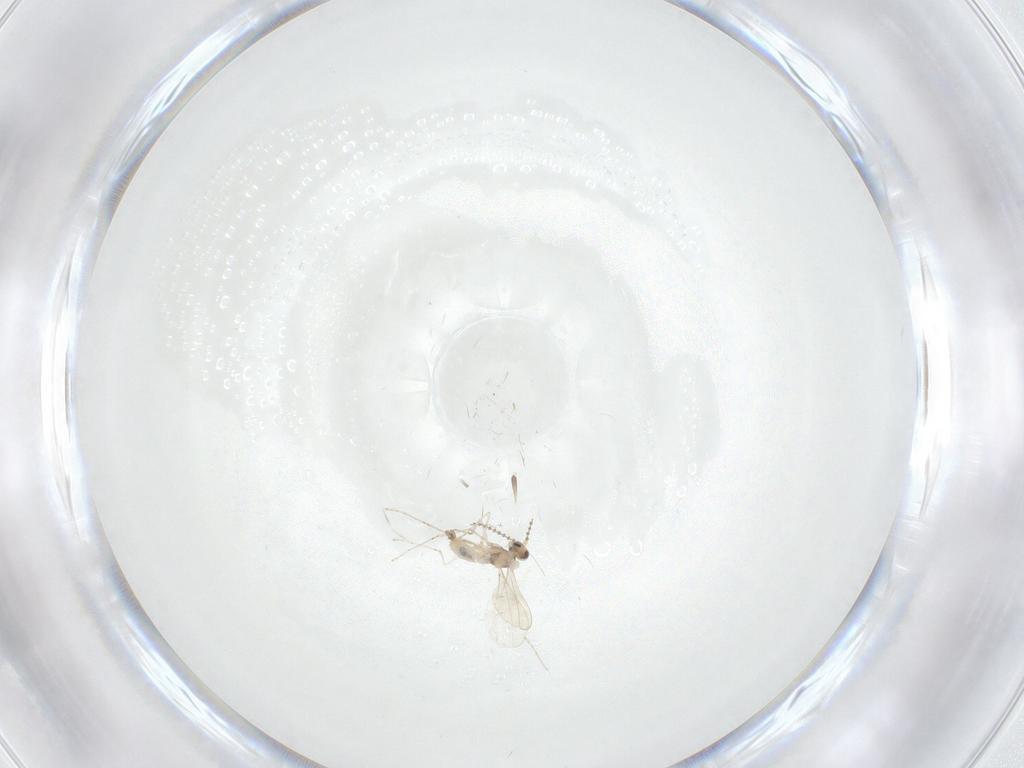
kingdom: Animalia
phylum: Arthropoda
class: Insecta
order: Diptera
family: Cecidomyiidae
